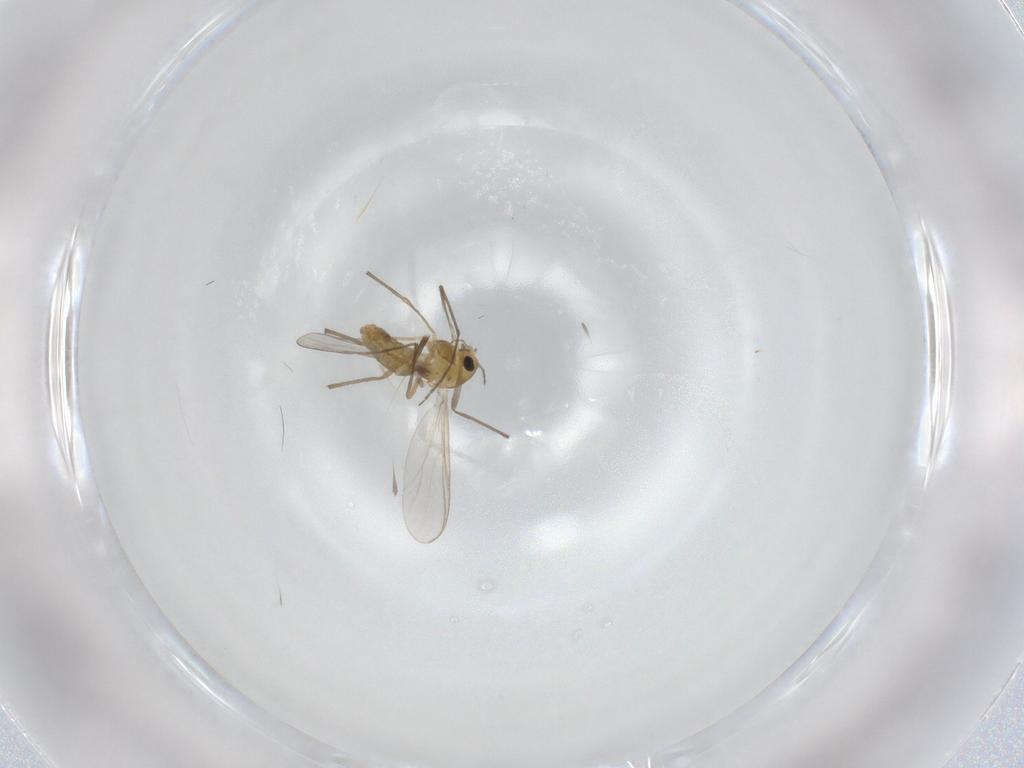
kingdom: Animalia
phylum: Arthropoda
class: Insecta
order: Diptera
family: Chironomidae
